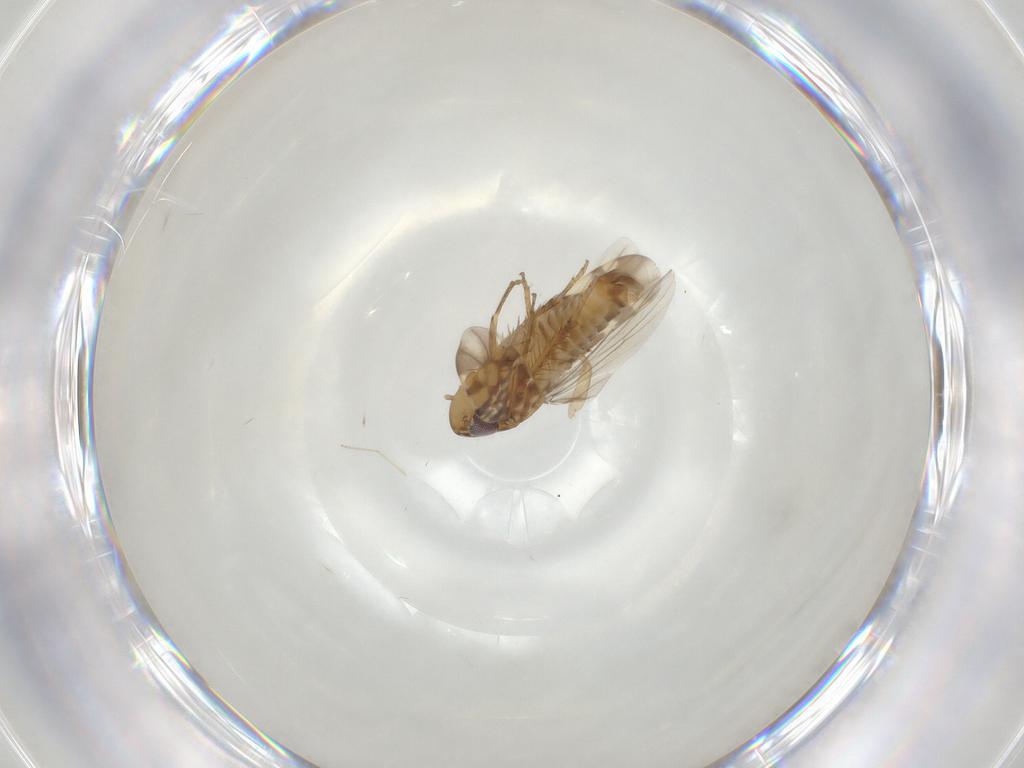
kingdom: Animalia
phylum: Arthropoda
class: Insecta
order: Hemiptera
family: Cicadellidae
